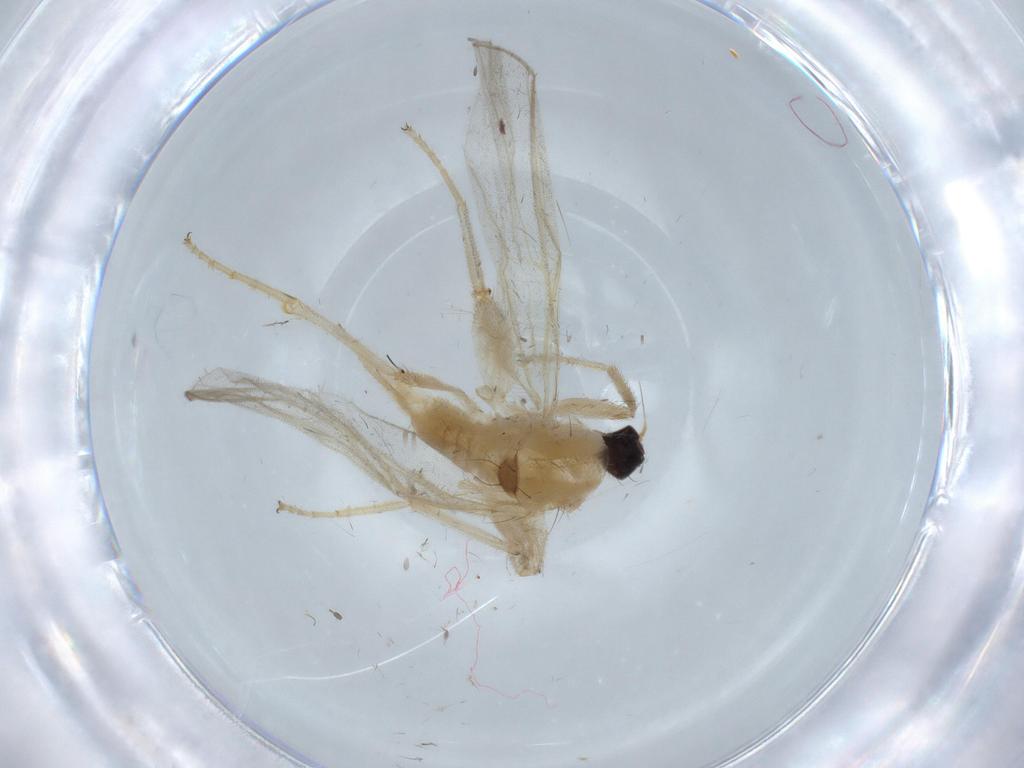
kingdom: Animalia
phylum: Arthropoda
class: Insecta
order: Diptera
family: Hybotidae
